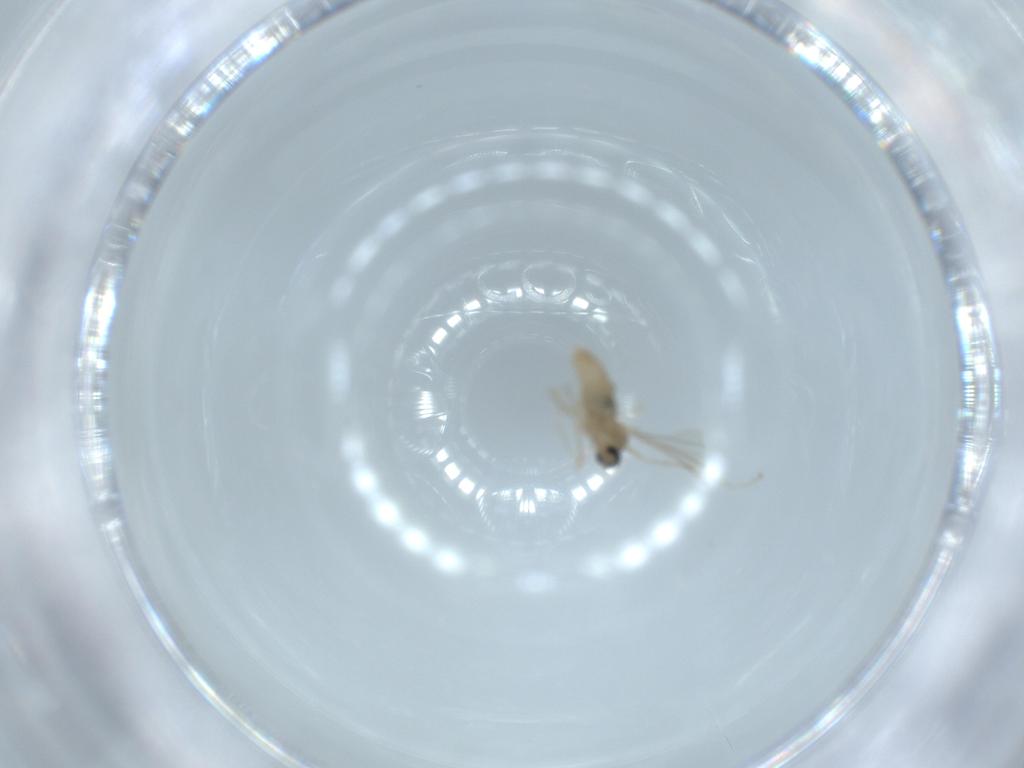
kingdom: Animalia
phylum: Arthropoda
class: Insecta
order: Diptera
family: Cecidomyiidae
